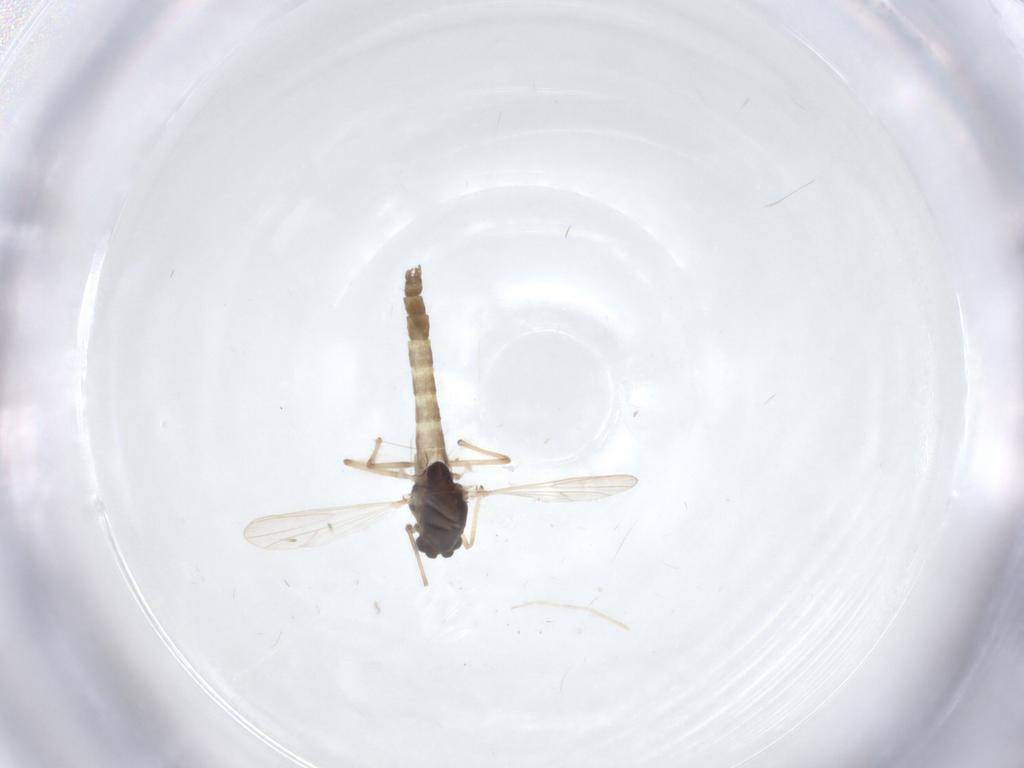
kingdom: Animalia
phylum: Arthropoda
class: Insecta
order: Diptera
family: Chironomidae
